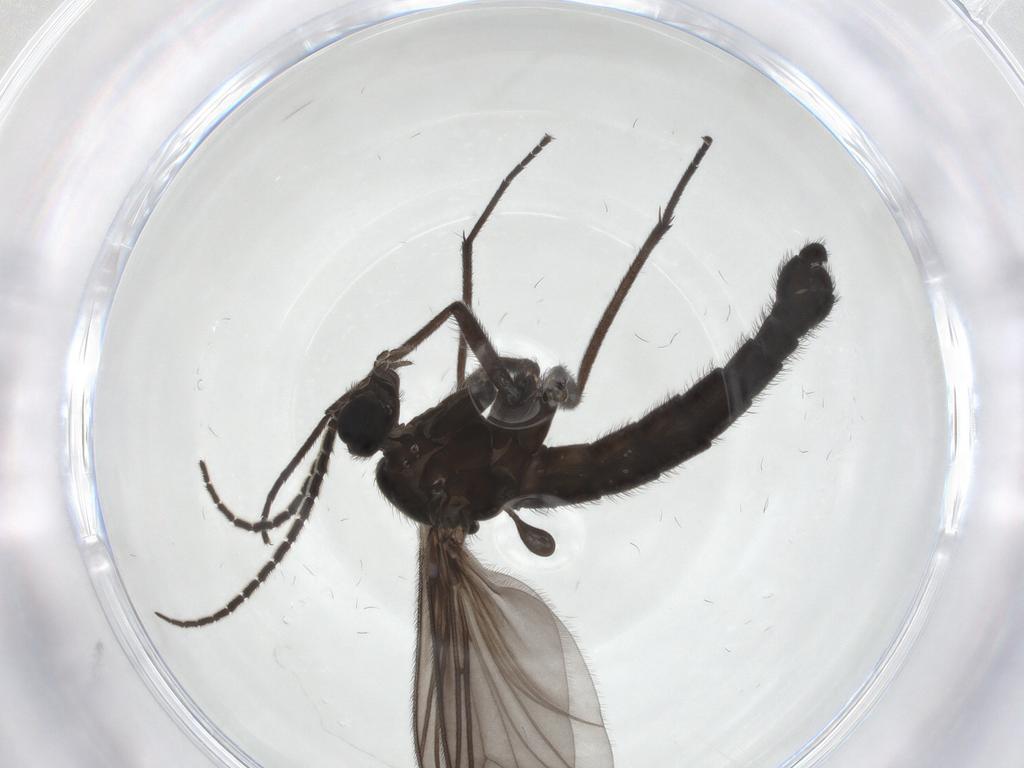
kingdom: Animalia
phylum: Arthropoda
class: Insecta
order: Diptera
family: Sciaridae
